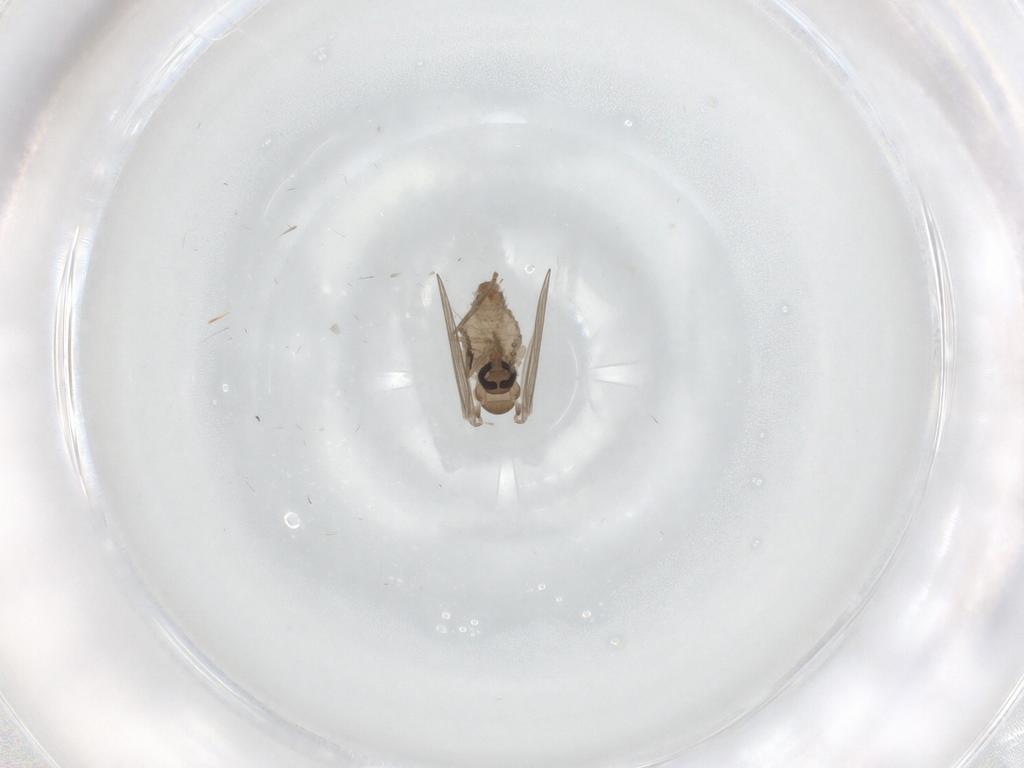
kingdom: Animalia
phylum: Arthropoda
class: Insecta
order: Diptera
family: Psychodidae
